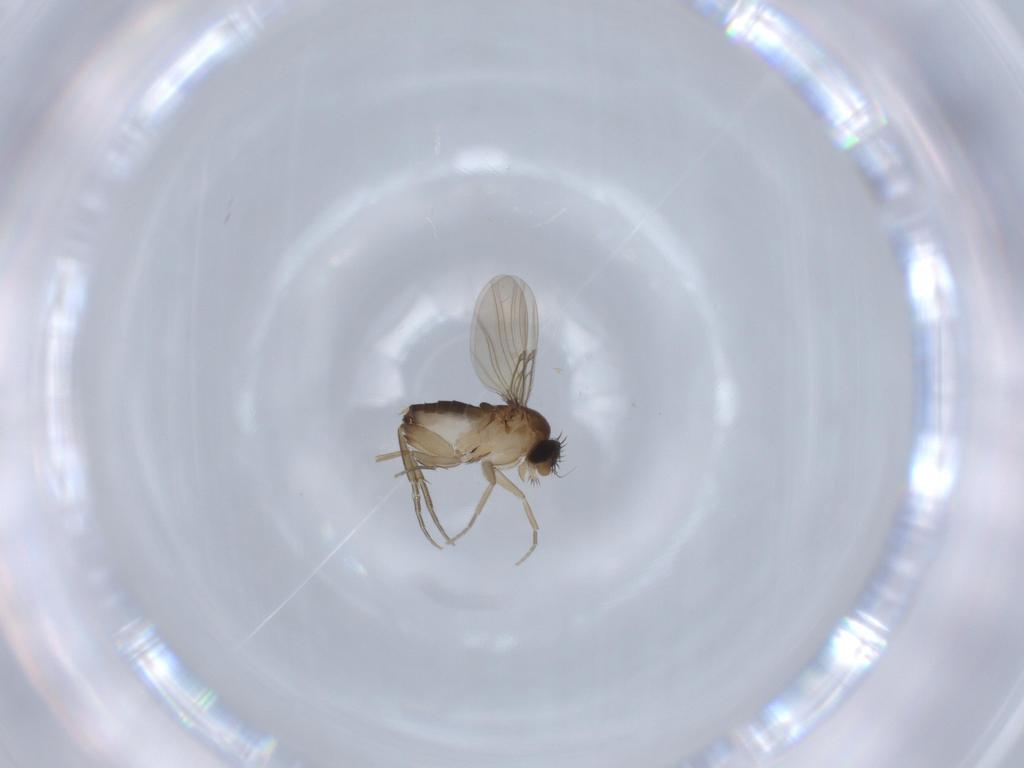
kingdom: Animalia
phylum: Arthropoda
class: Insecta
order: Diptera
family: Phoridae
